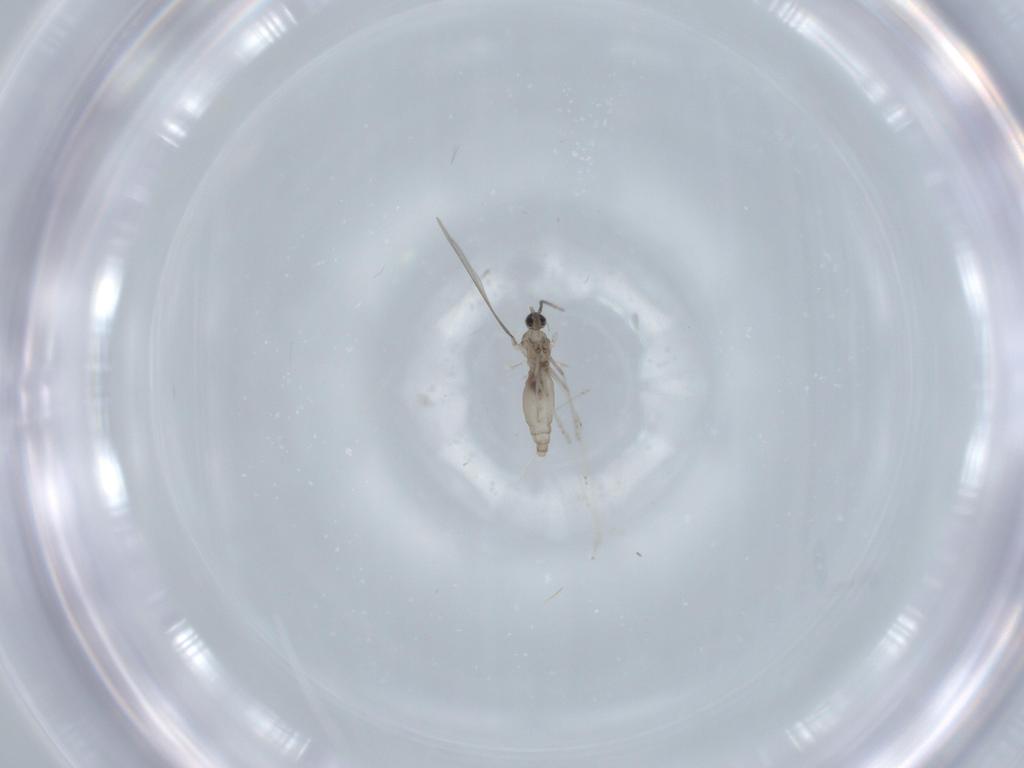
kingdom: Animalia
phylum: Arthropoda
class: Insecta
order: Diptera
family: Cecidomyiidae
